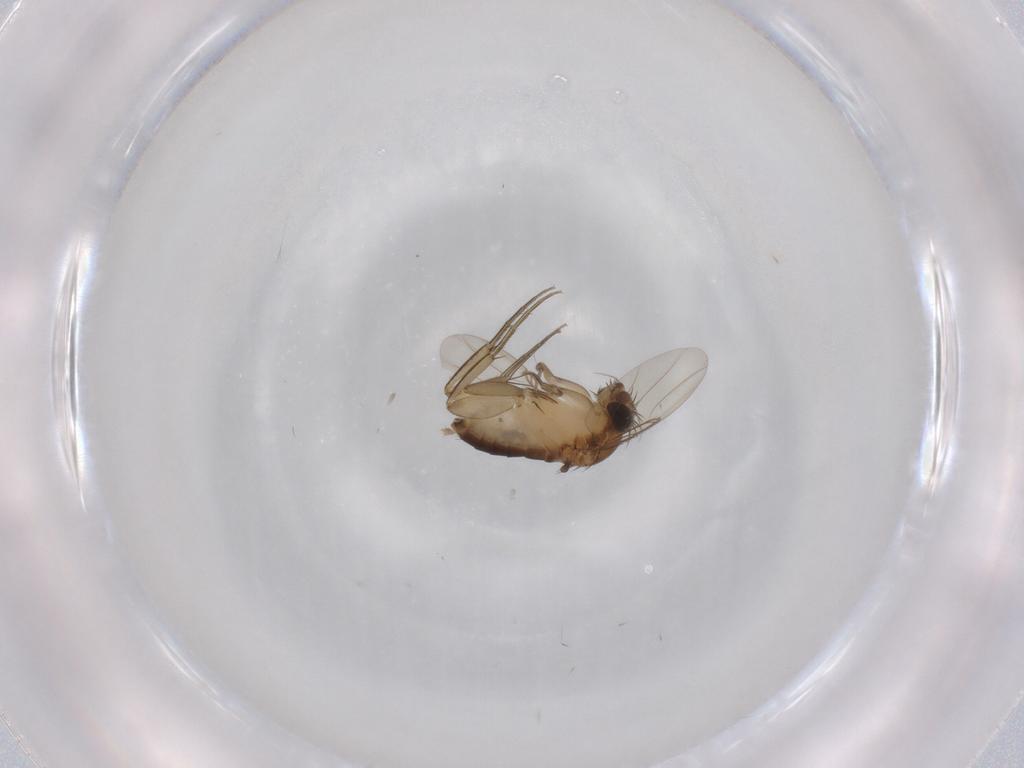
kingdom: Animalia
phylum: Arthropoda
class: Insecta
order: Diptera
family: Phoridae
